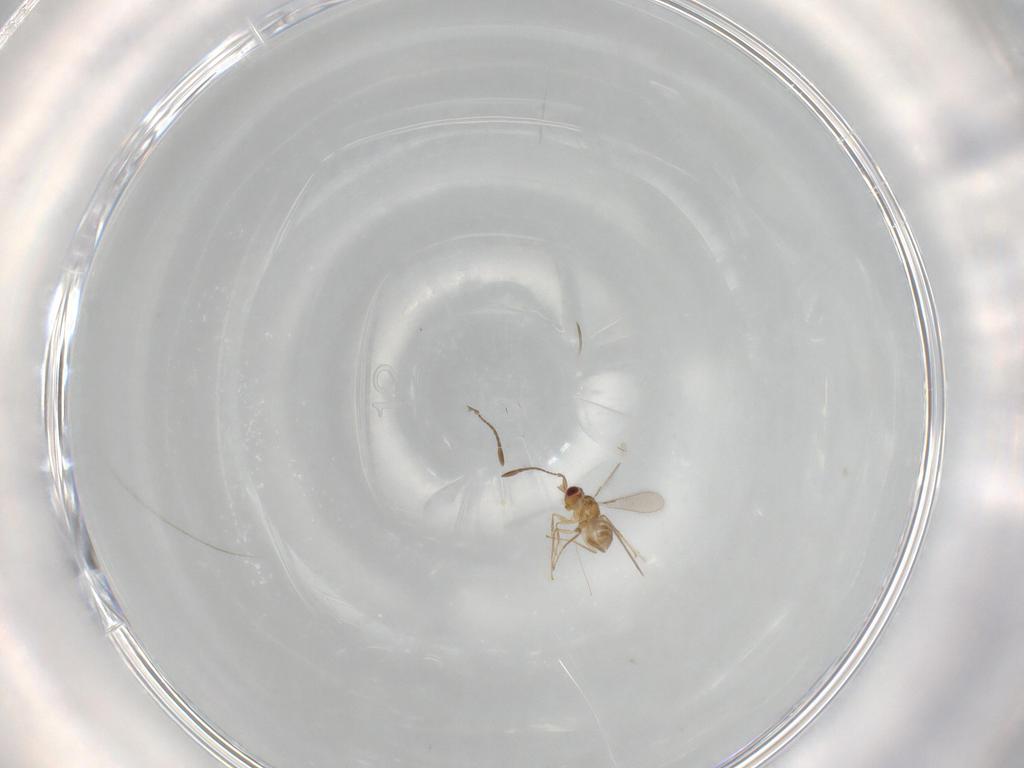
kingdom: Animalia
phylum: Arthropoda
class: Insecta
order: Hymenoptera
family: Mymaridae
